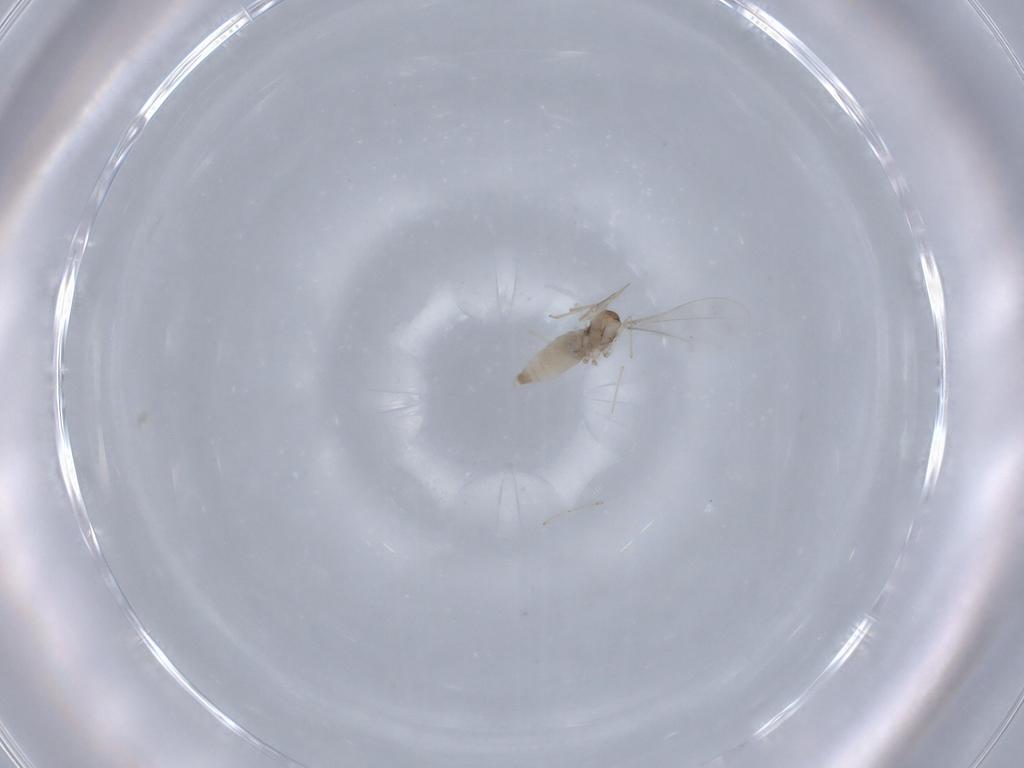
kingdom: Animalia
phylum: Arthropoda
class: Insecta
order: Diptera
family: Cecidomyiidae
